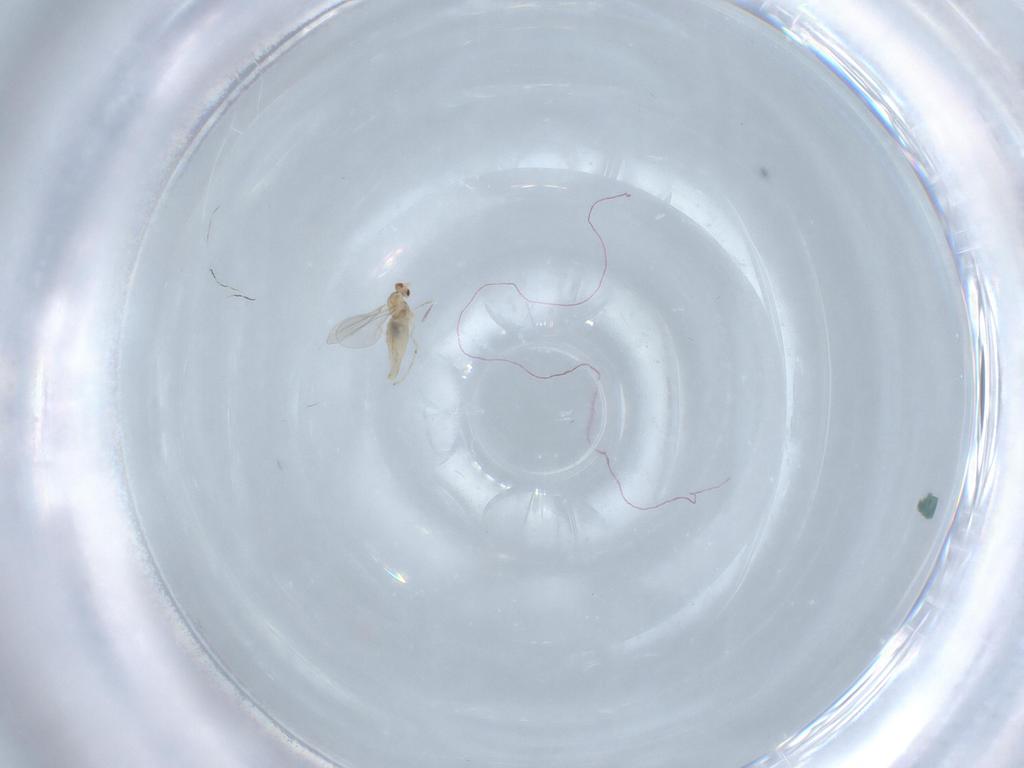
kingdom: Animalia
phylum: Arthropoda
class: Insecta
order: Diptera
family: Cecidomyiidae
